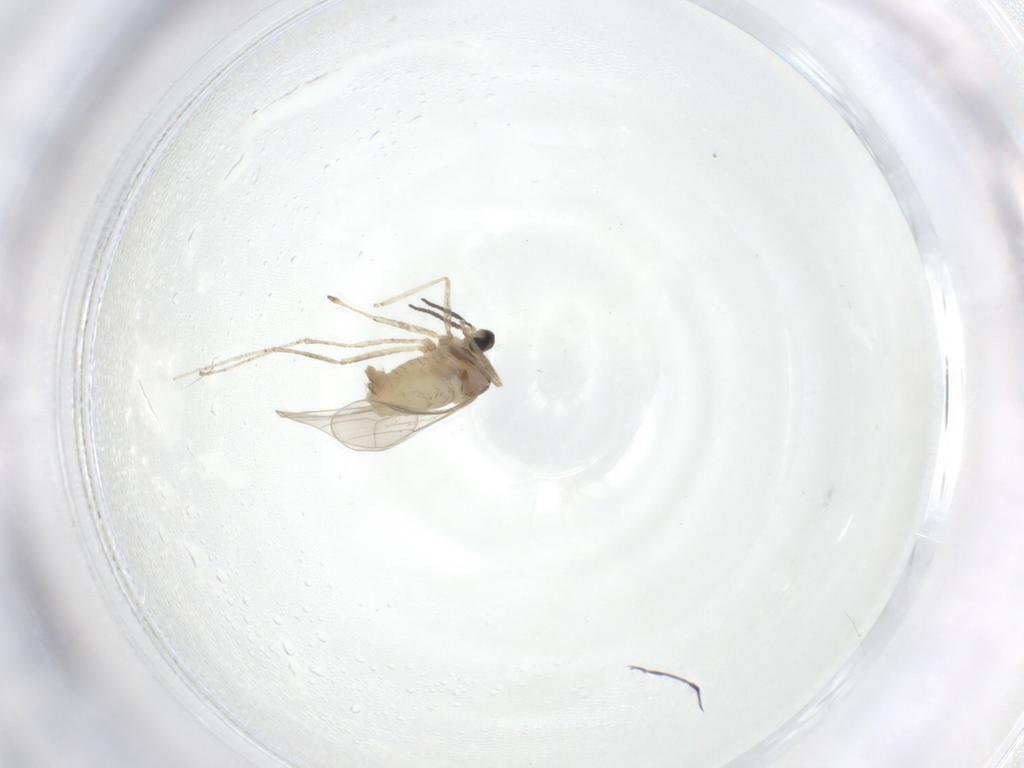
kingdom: Animalia
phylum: Arthropoda
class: Insecta
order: Diptera
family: Cecidomyiidae
